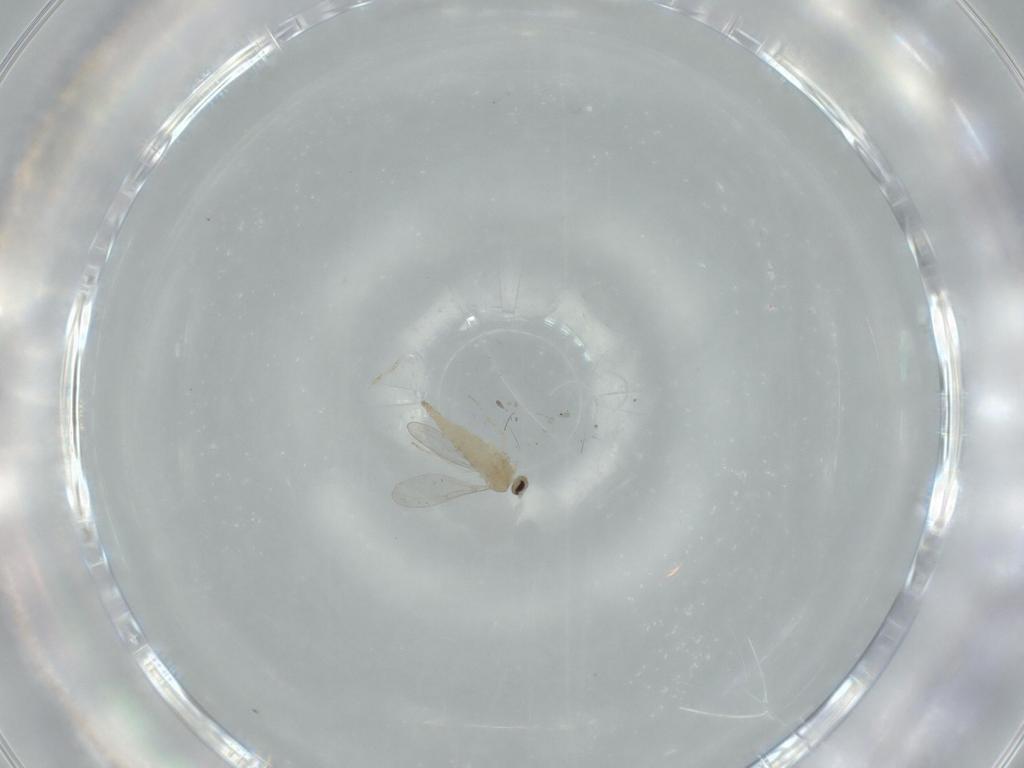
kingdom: Animalia
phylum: Arthropoda
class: Insecta
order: Diptera
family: Cecidomyiidae
